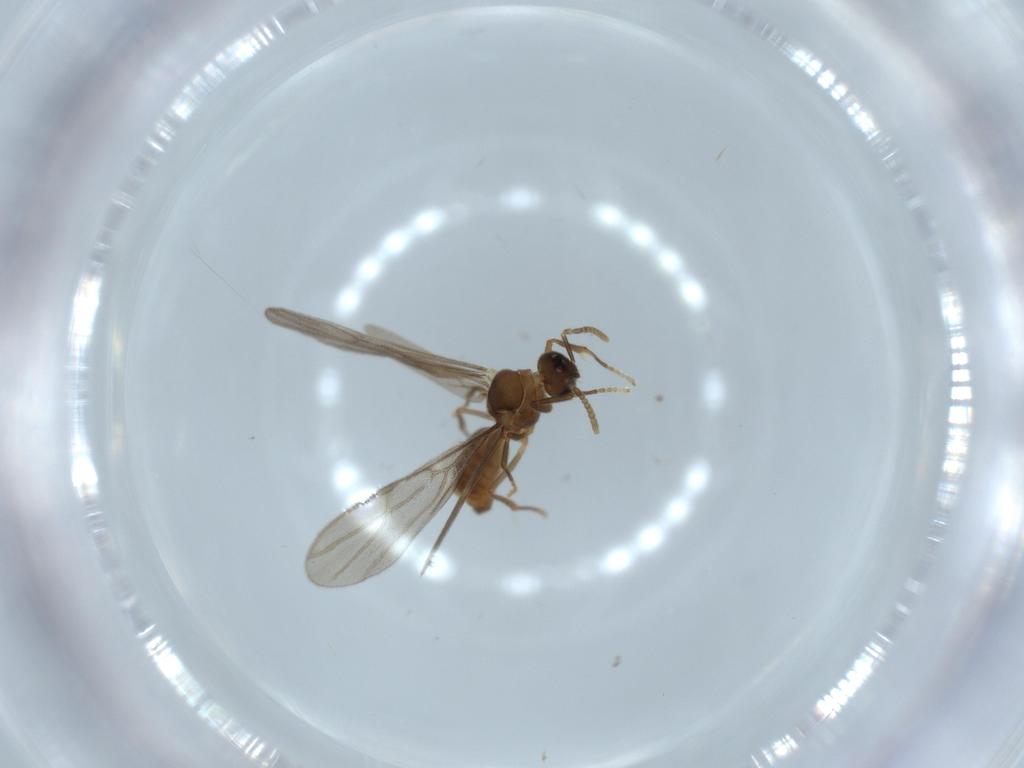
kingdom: Animalia
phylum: Arthropoda
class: Insecta
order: Hymenoptera
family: Formicidae
